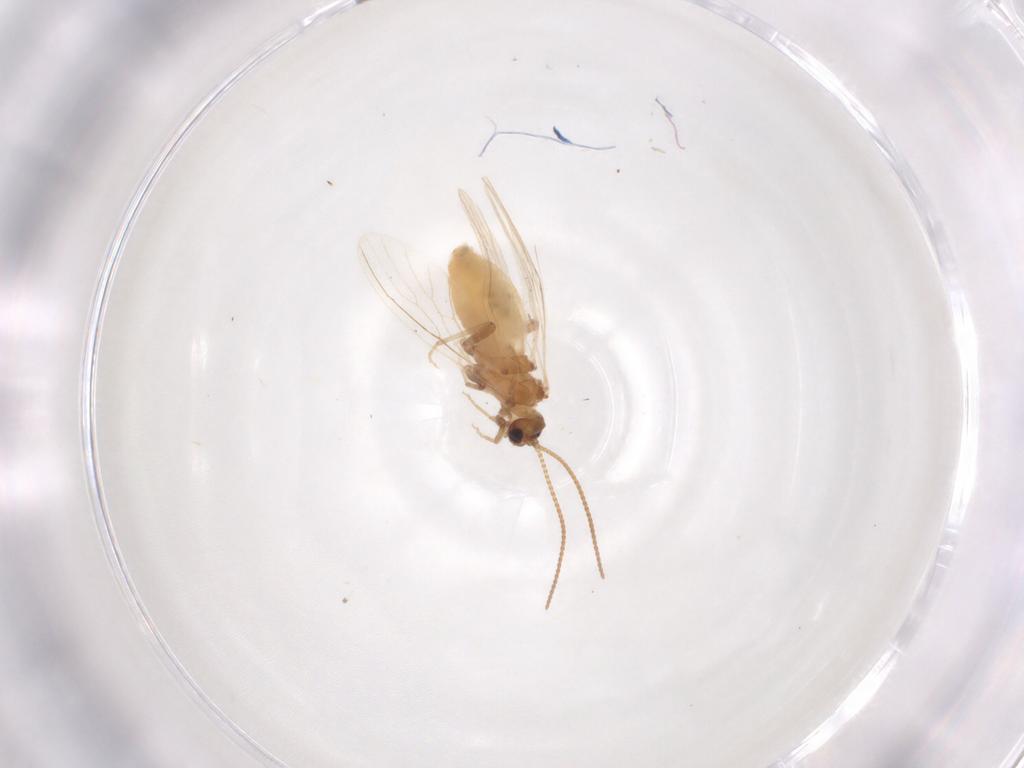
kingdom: Animalia
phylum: Arthropoda
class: Insecta
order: Neuroptera
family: Coniopterygidae
